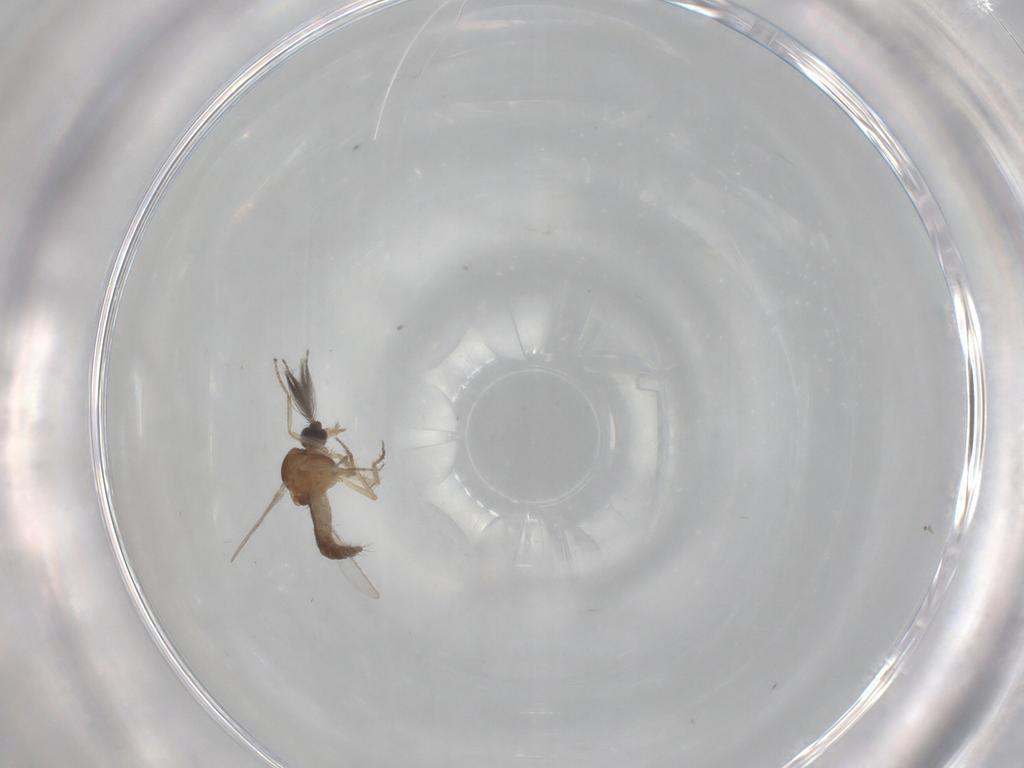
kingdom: Animalia
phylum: Arthropoda
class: Insecta
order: Diptera
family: Ceratopogonidae
